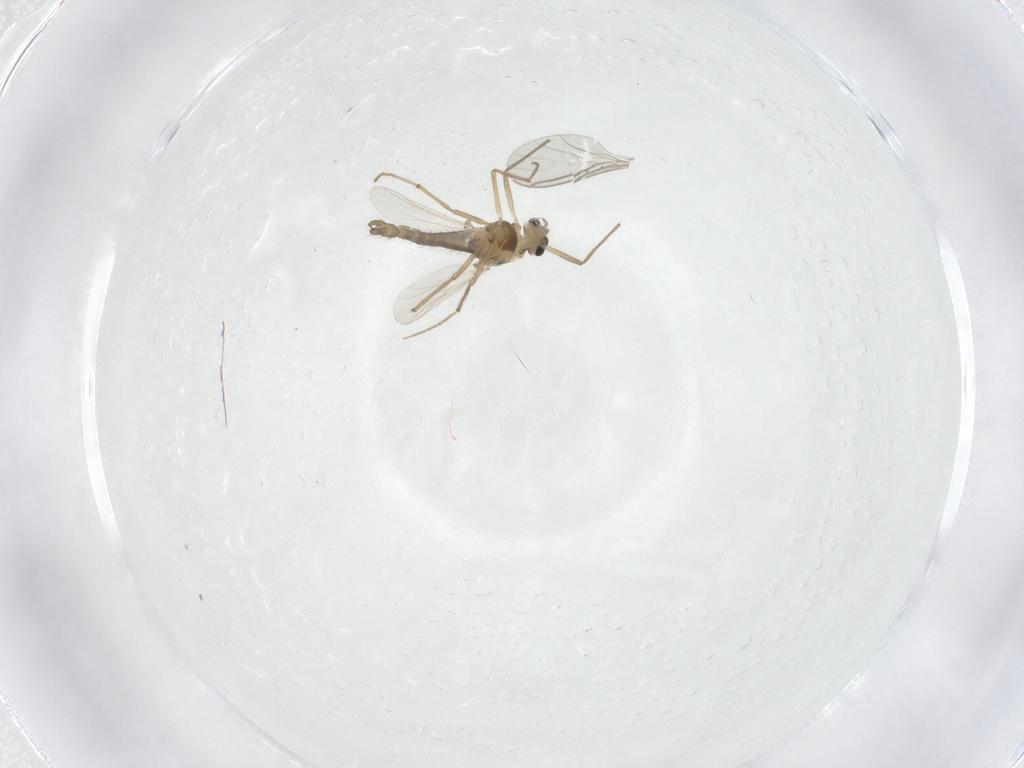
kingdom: Animalia
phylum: Arthropoda
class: Insecta
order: Diptera
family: Chironomidae
